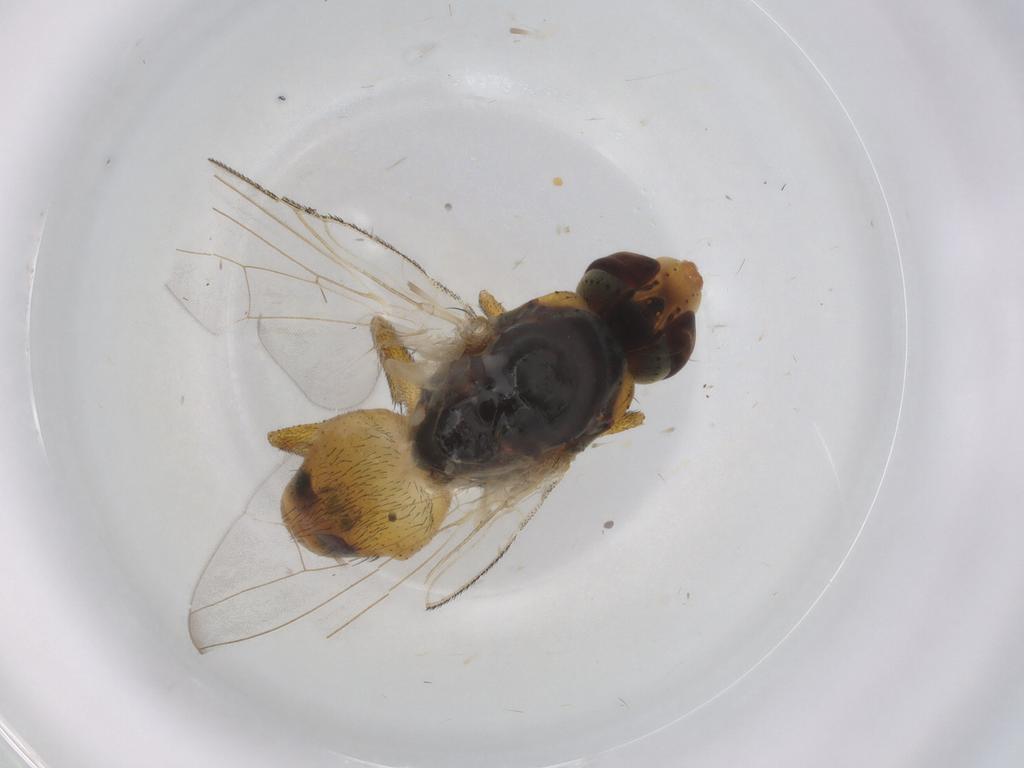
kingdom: Animalia
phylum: Arthropoda
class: Insecta
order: Diptera
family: Muscidae
